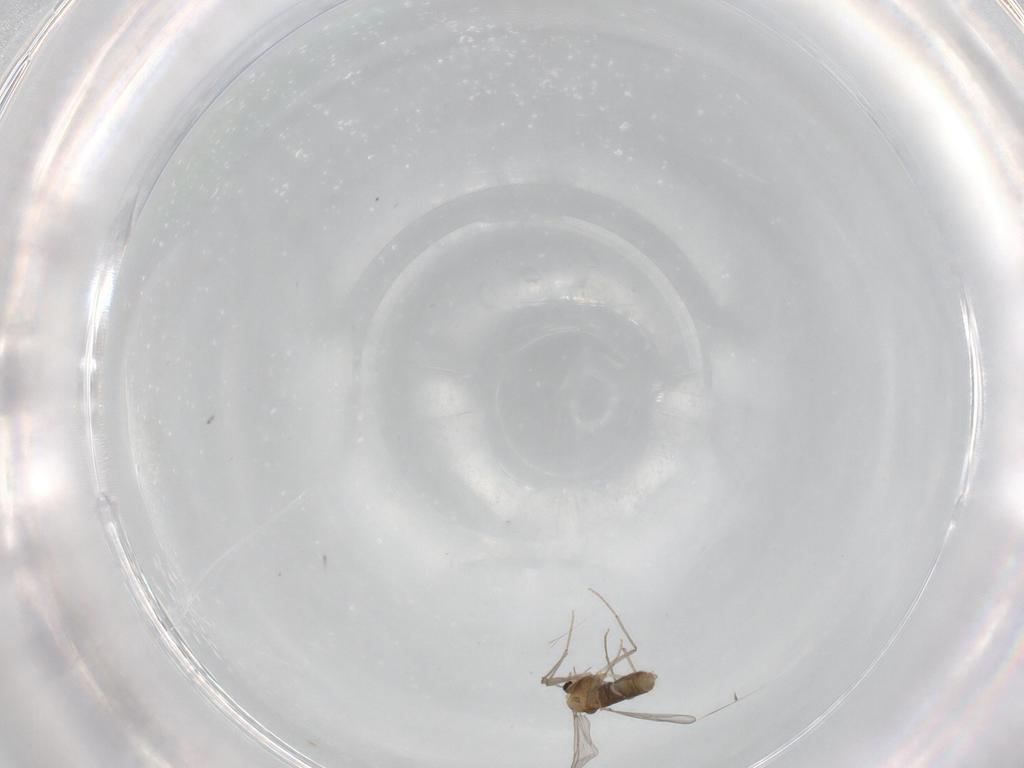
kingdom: Animalia
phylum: Arthropoda
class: Insecta
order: Diptera
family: Chironomidae
